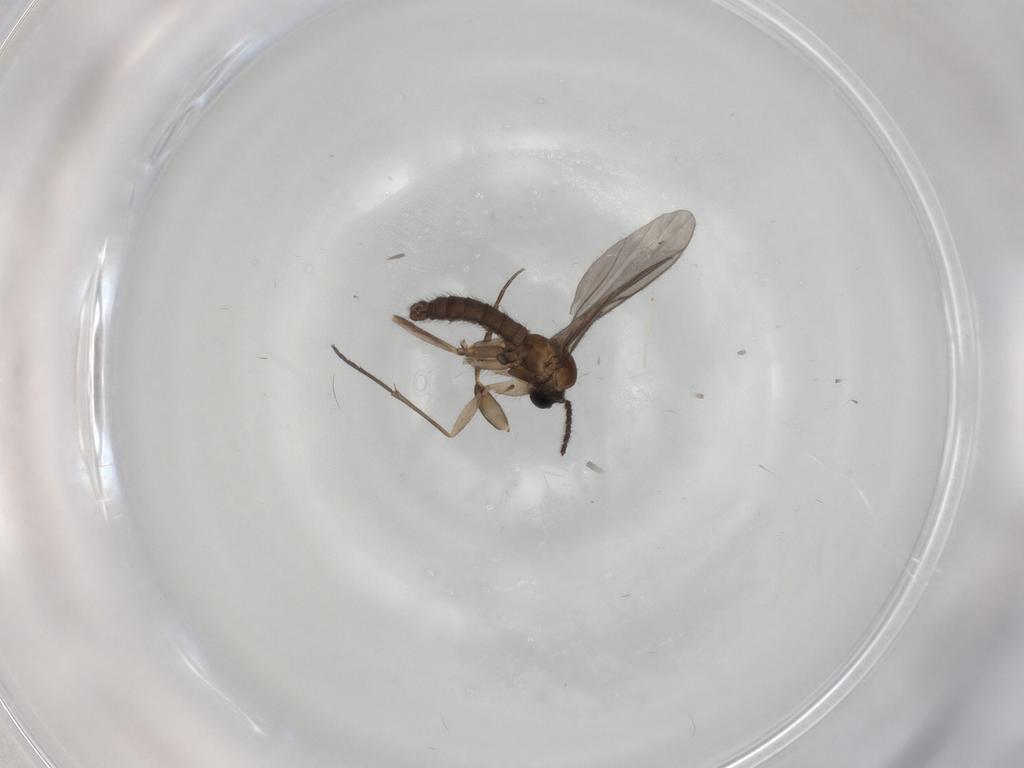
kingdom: Animalia
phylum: Arthropoda
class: Insecta
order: Diptera
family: Sciaridae
